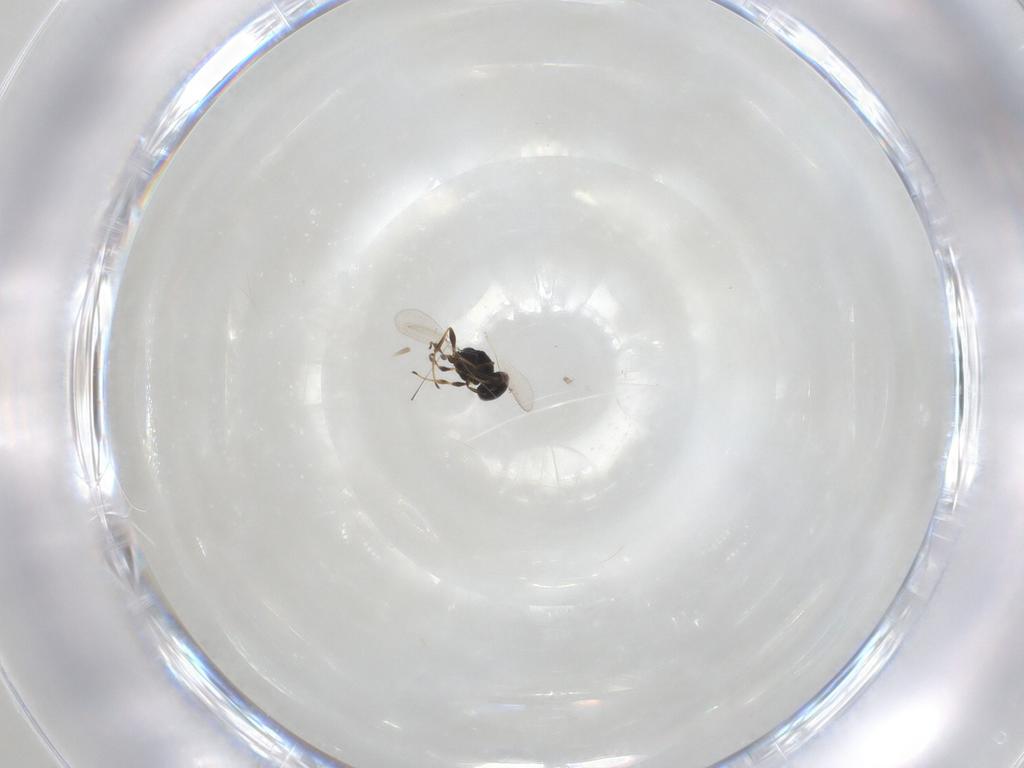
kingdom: Animalia
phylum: Arthropoda
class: Insecta
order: Hymenoptera
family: Platygastridae
